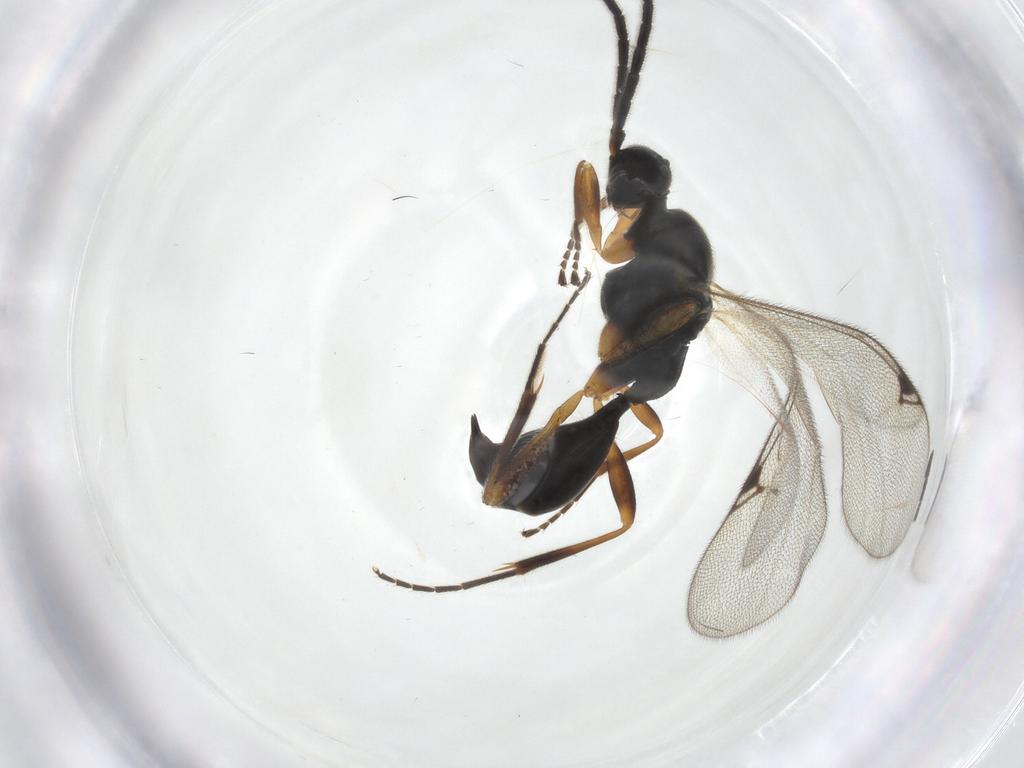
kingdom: Animalia
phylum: Arthropoda
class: Insecta
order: Hymenoptera
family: Proctotrupidae
